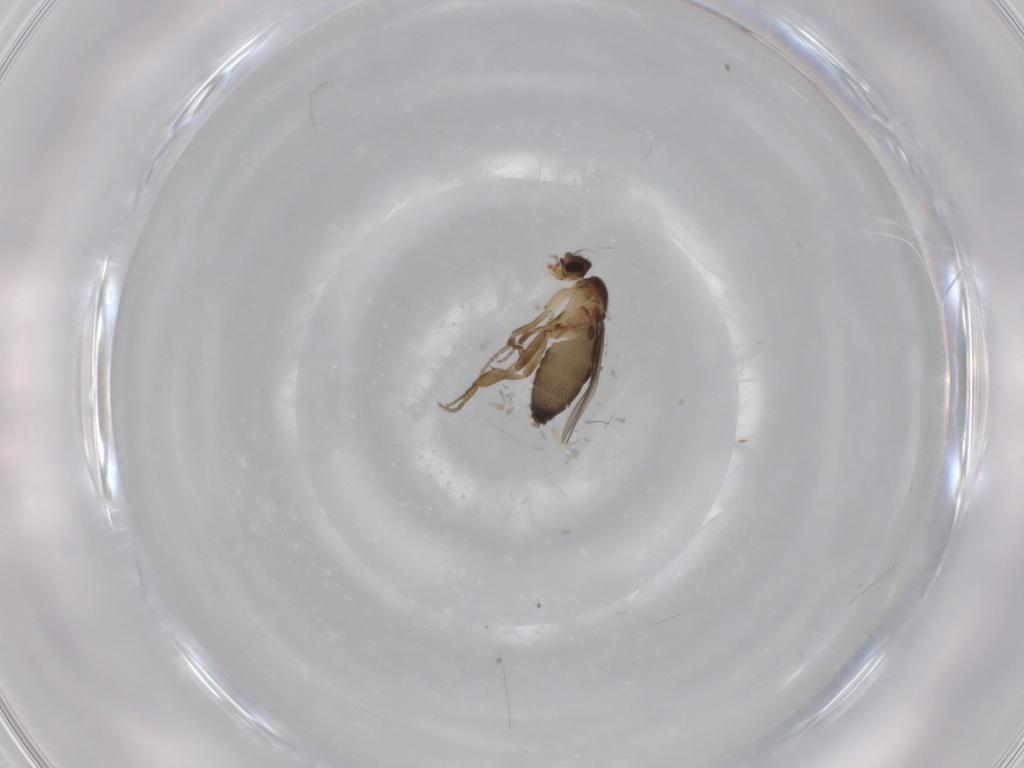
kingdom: Animalia
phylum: Arthropoda
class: Insecta
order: Diptera
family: Phoridae
